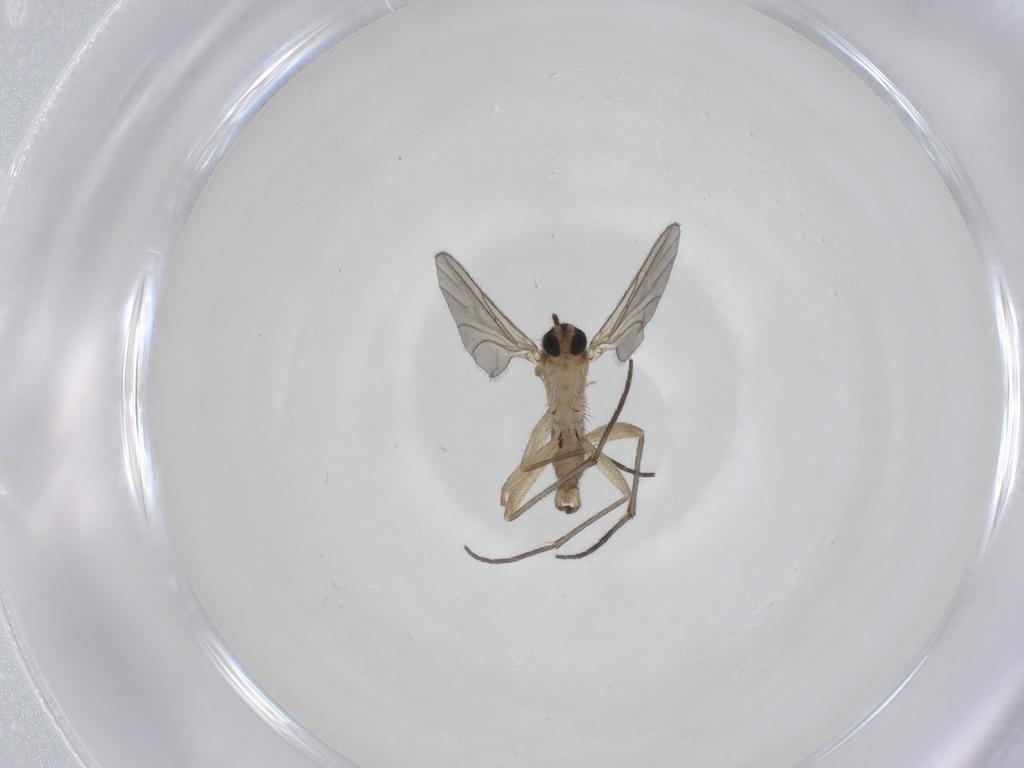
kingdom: Animalia
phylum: Arthropoda
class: Insecta
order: Diptera
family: Sciaridae
